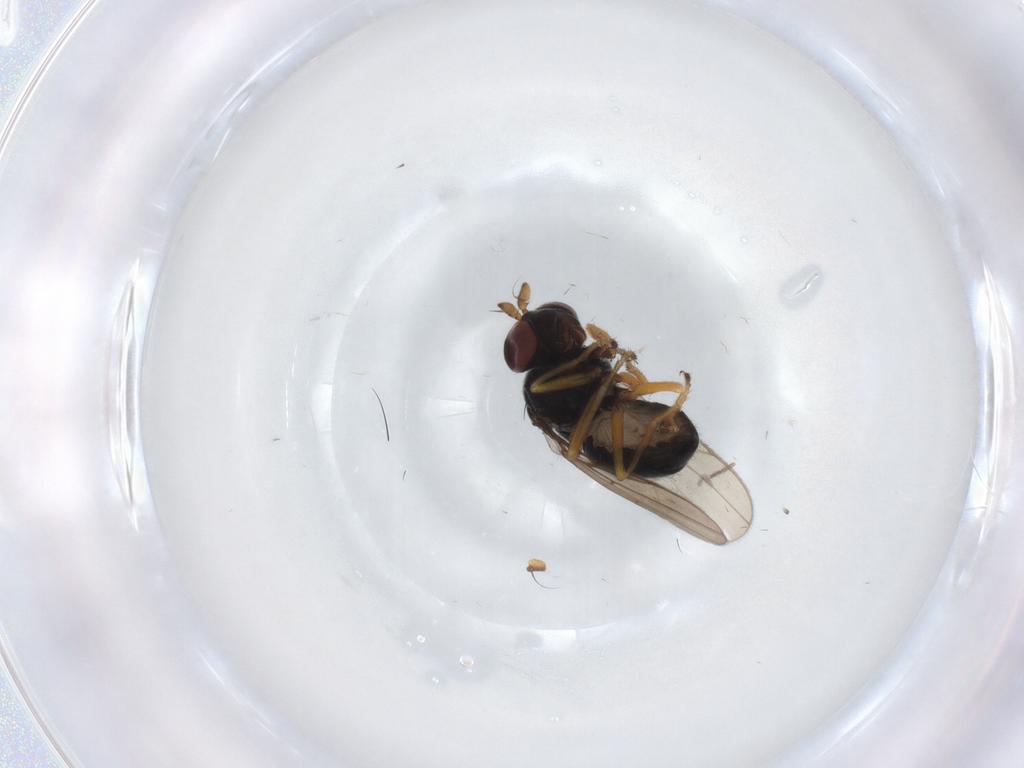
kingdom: Animalia
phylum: Arthropoda
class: Insecta
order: Diptera
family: Ephydridae
